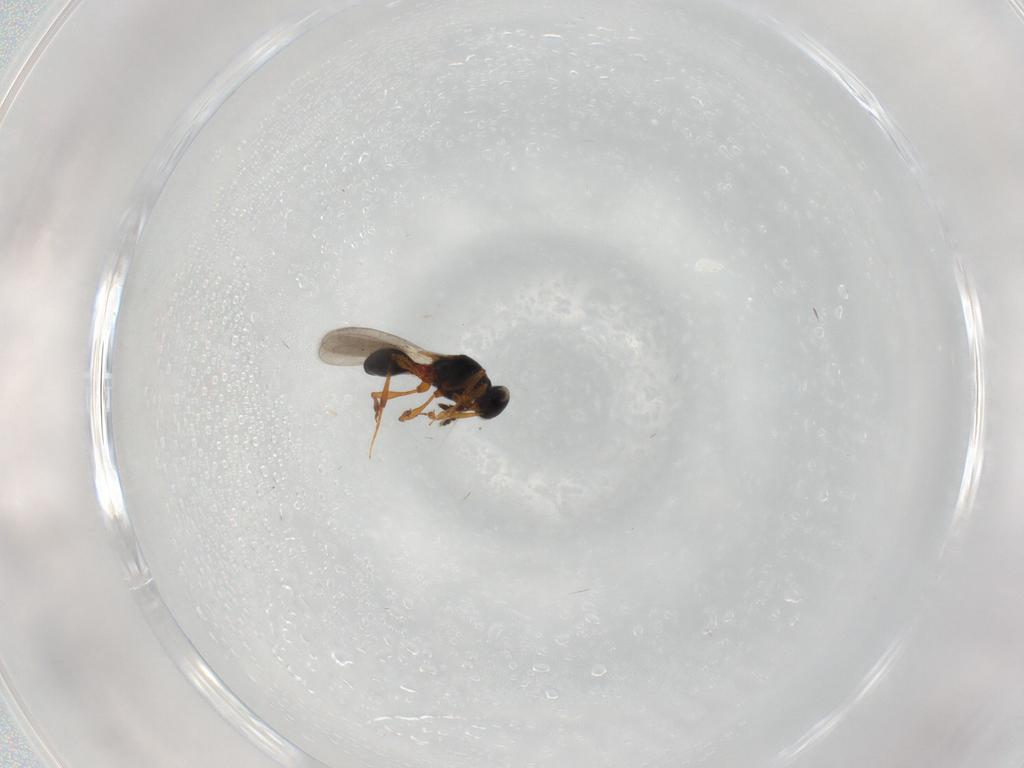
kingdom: Animalia
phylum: Arthropoda
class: Insecta
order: Hymenoptera
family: Platygastridae
